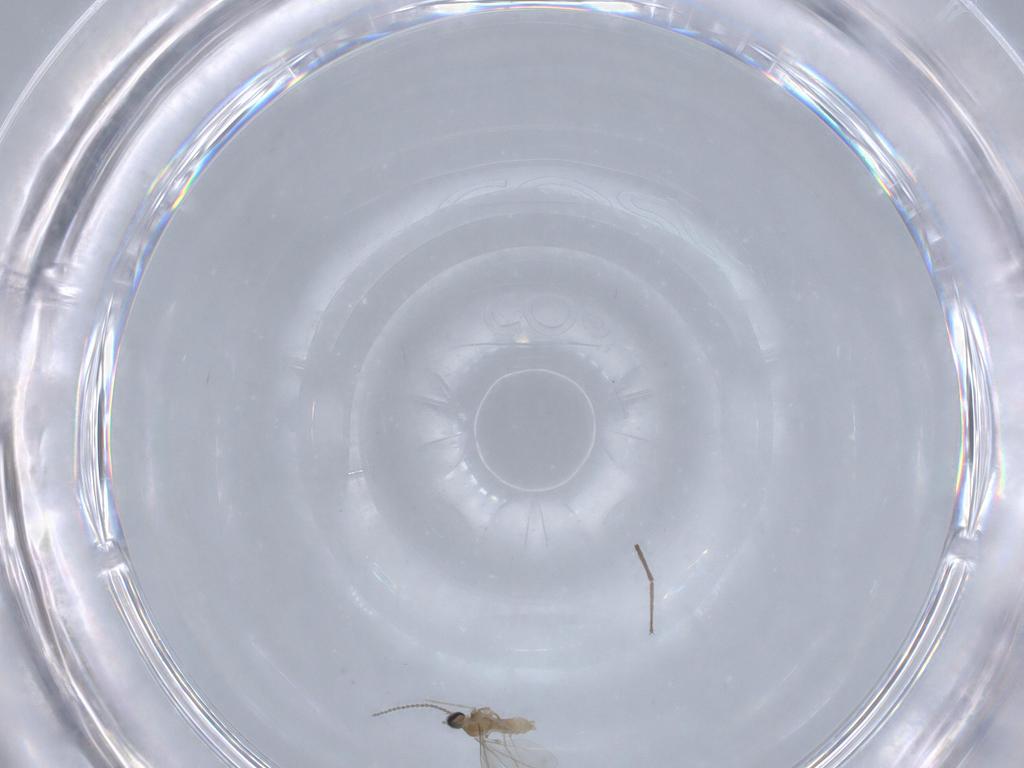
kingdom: Animalia
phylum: Arthropoda
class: Insecta
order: Diptera
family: Chironomidae
